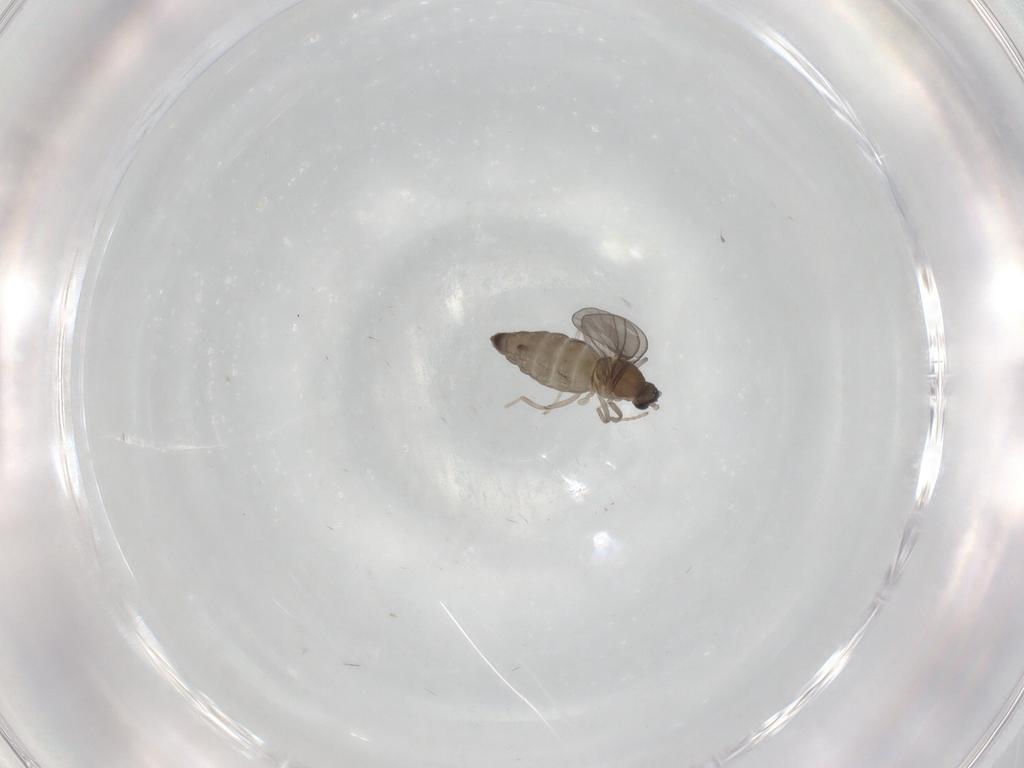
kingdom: Animalia
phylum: Arthropoda
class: Insecta
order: Diptera
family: Cecidomyiidae
